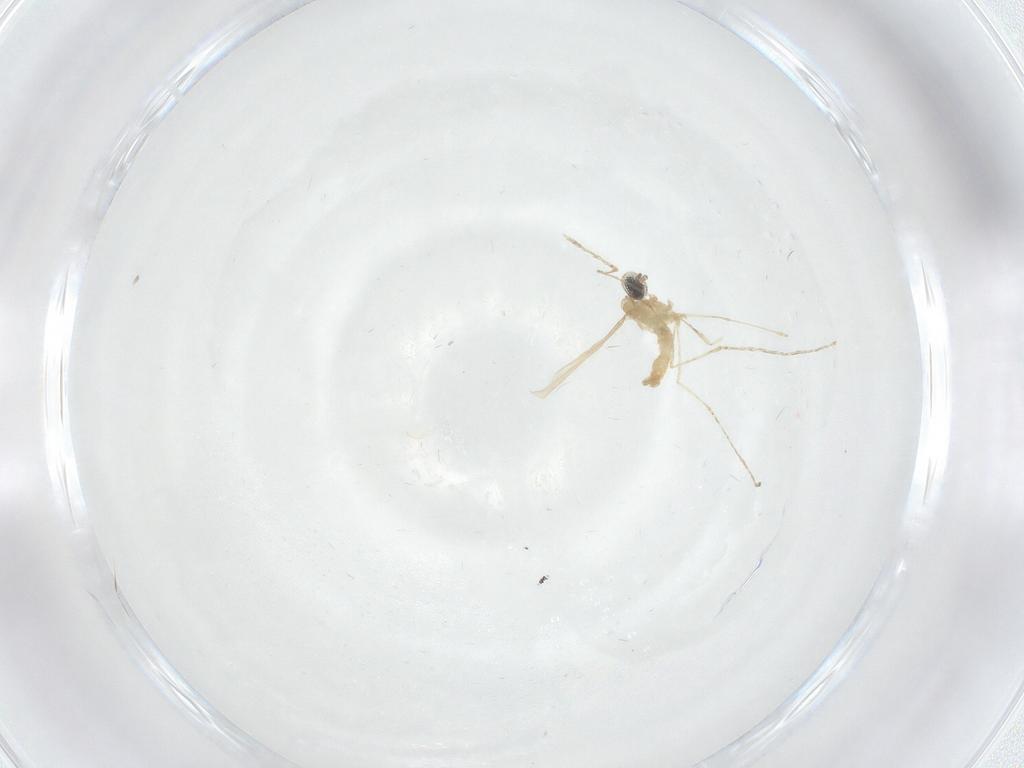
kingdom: Animalia
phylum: Arthropoda
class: Insecta
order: Diptera
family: Cecidomyiidae
